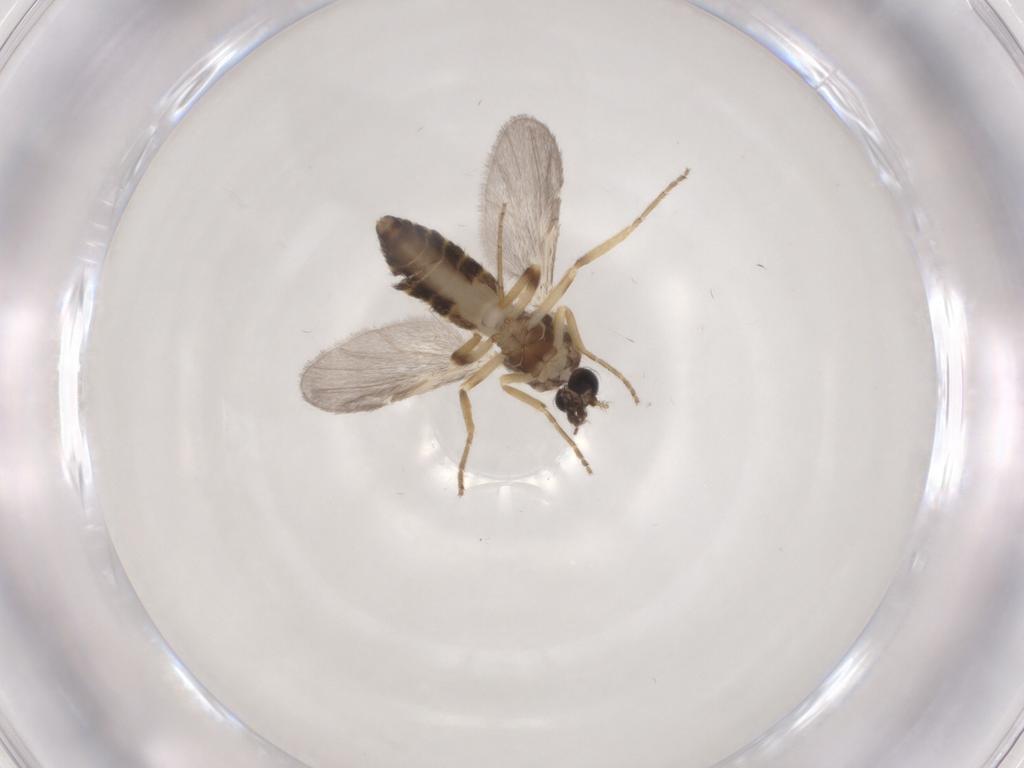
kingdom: Animalia
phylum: Arthropoda
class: Insecta
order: Diptera
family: Ceratopogonidae
